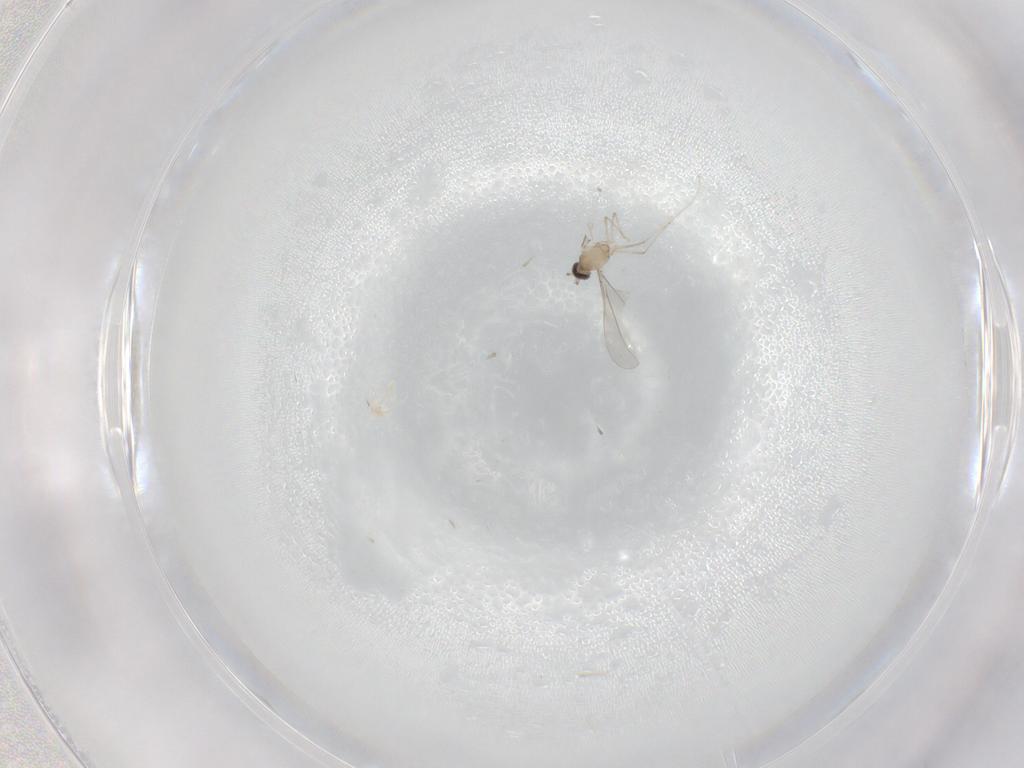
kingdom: Animalia
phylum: Arthropoda
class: Insecta
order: Diptera
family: Cecidomyiidae
